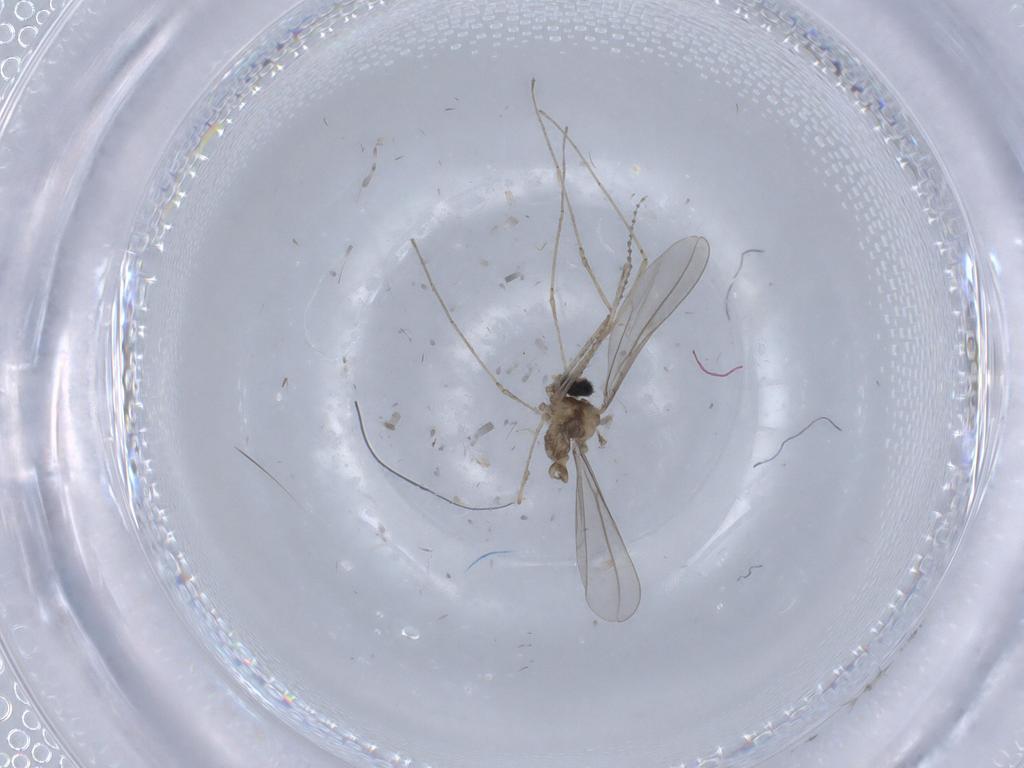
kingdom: Animalia
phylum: Arthropoda
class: Insecta
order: Diptera
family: Cecidomyiidae
